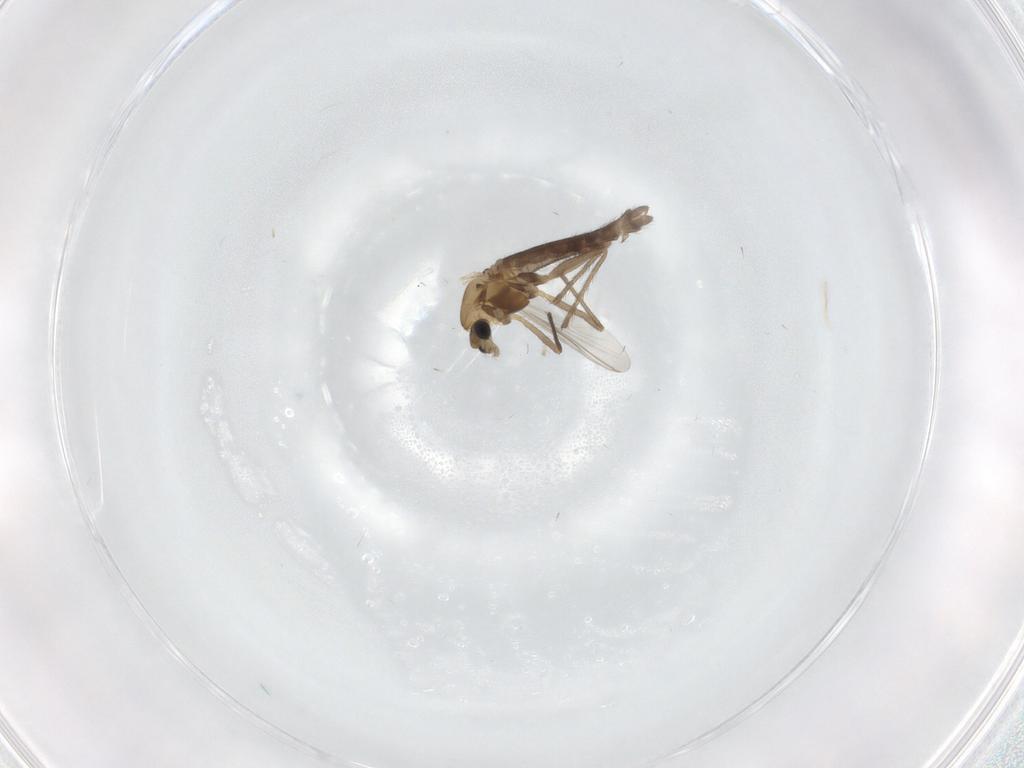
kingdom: Animalia
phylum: Arthropoda
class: Insecta
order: Diptera
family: Chironomidae
